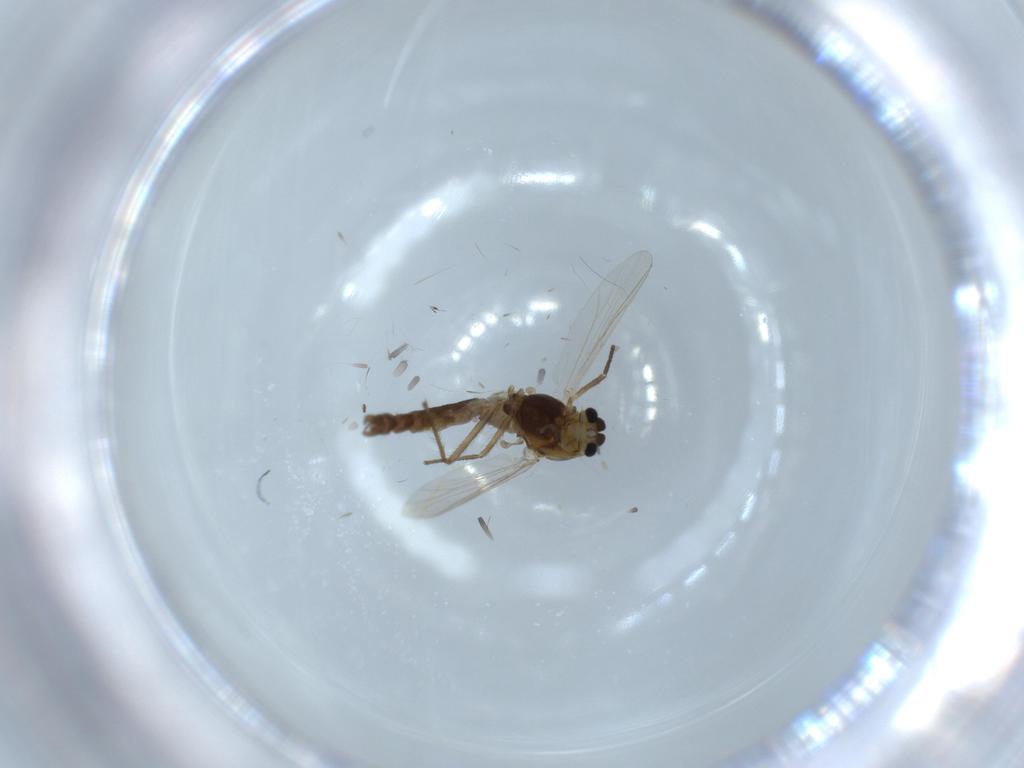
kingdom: Animalia
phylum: Arthropoda
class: Insecta
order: Diptera
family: Chironomidae
